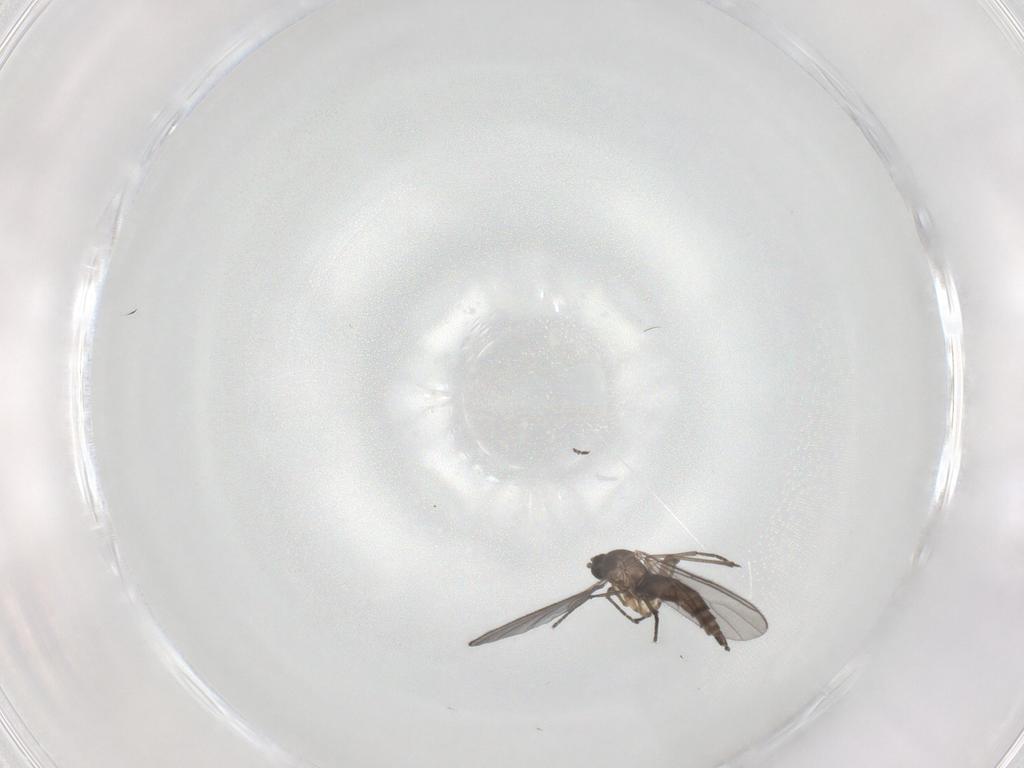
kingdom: Animalia
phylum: Arthropoda
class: Insecta
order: Diptera
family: Sciaridae
